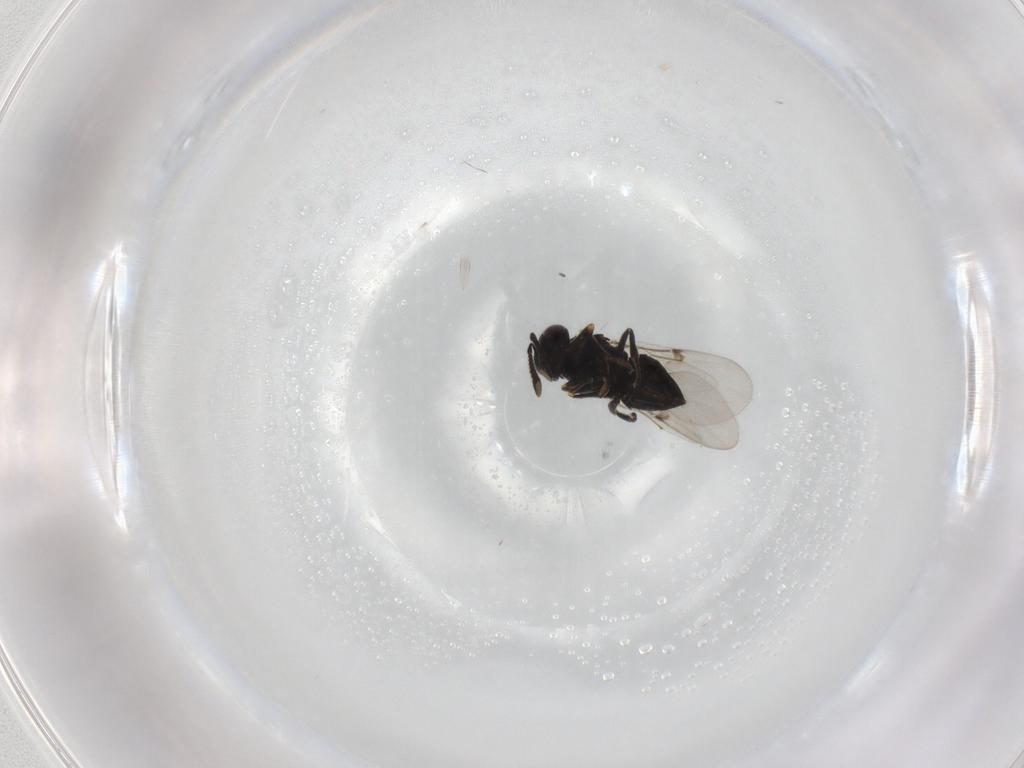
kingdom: Animalia
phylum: Arthropoda
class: Insecta
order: Hymenoptera
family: Encyrtidae
